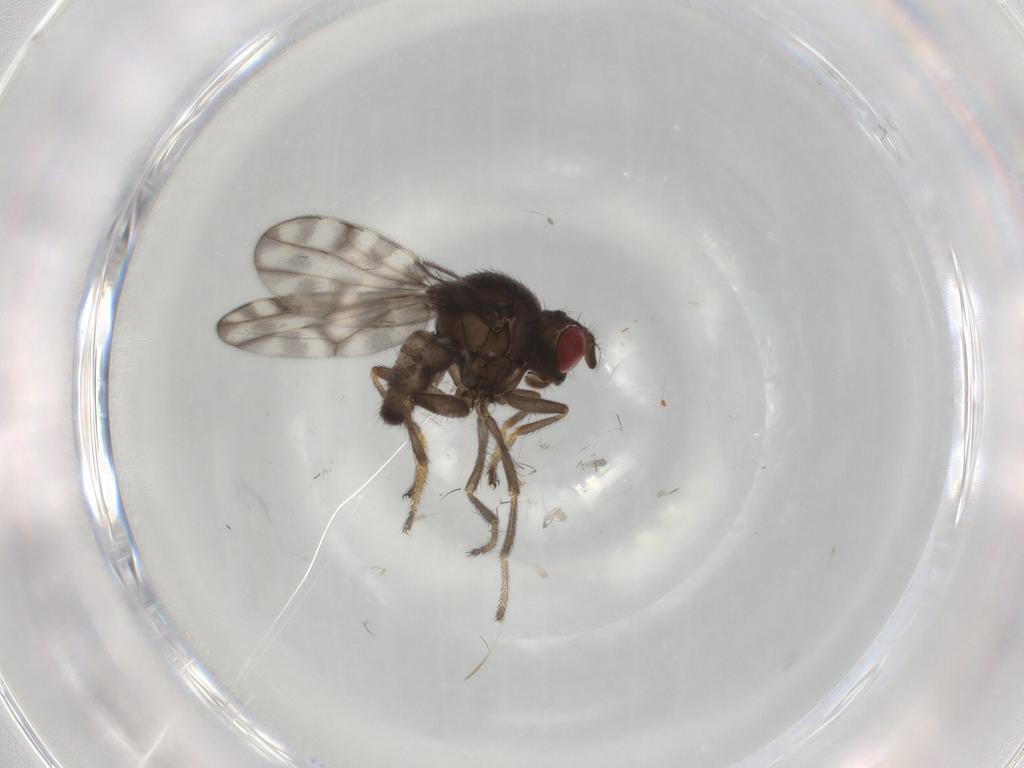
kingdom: Animalia
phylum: Arthropoda
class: Insecta
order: Diptera
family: Ephydridae
